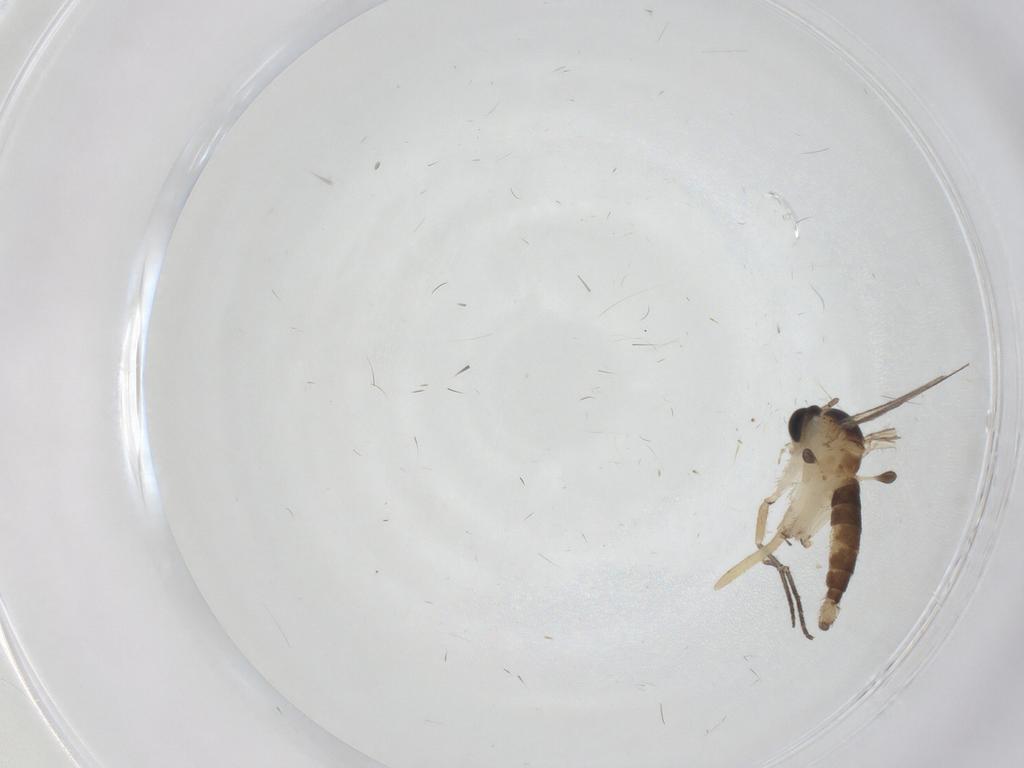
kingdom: Animalia
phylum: Arthropoda
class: Insecta
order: Diptera
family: Sciaridae
